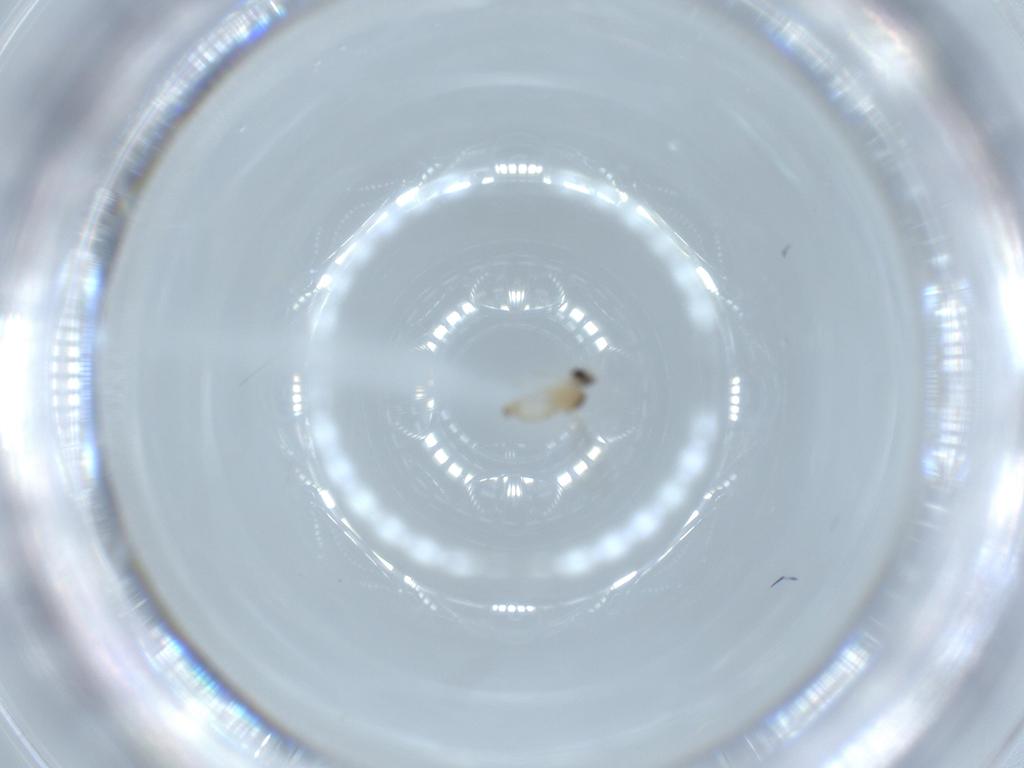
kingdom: Animalia
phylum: Arthropoda
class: Insecta
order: Diptera
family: Cecidomyiidae
